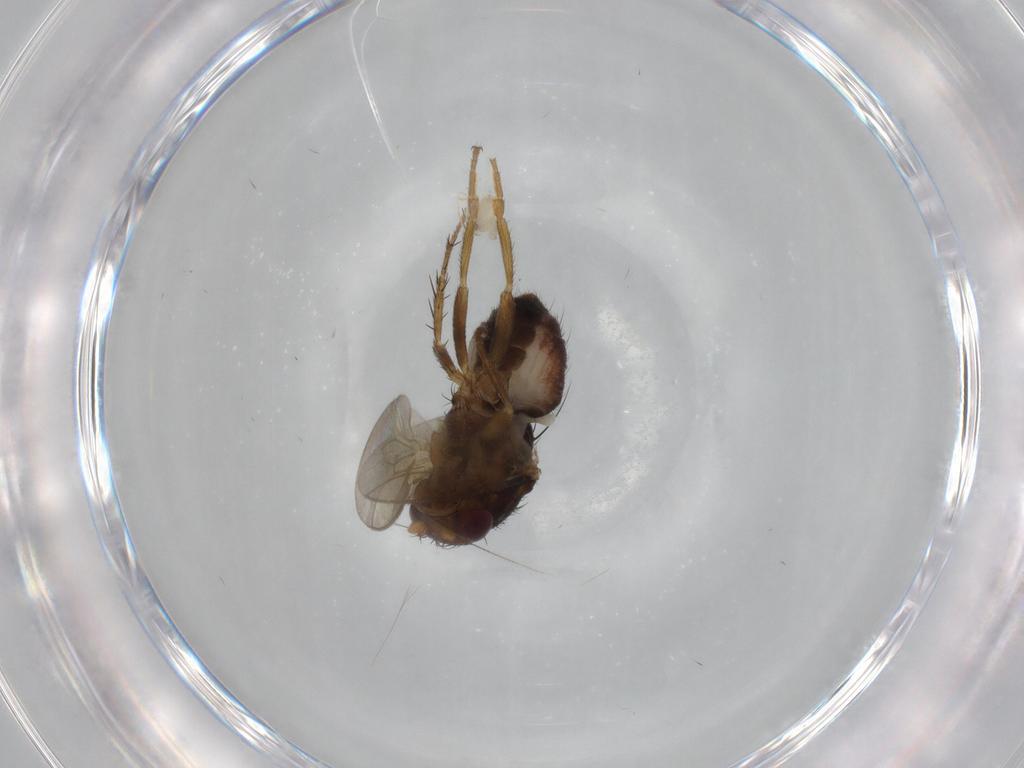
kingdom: Animalia
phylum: Arthropoda
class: Insecta
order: Diptera
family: Sphaeroceridae
